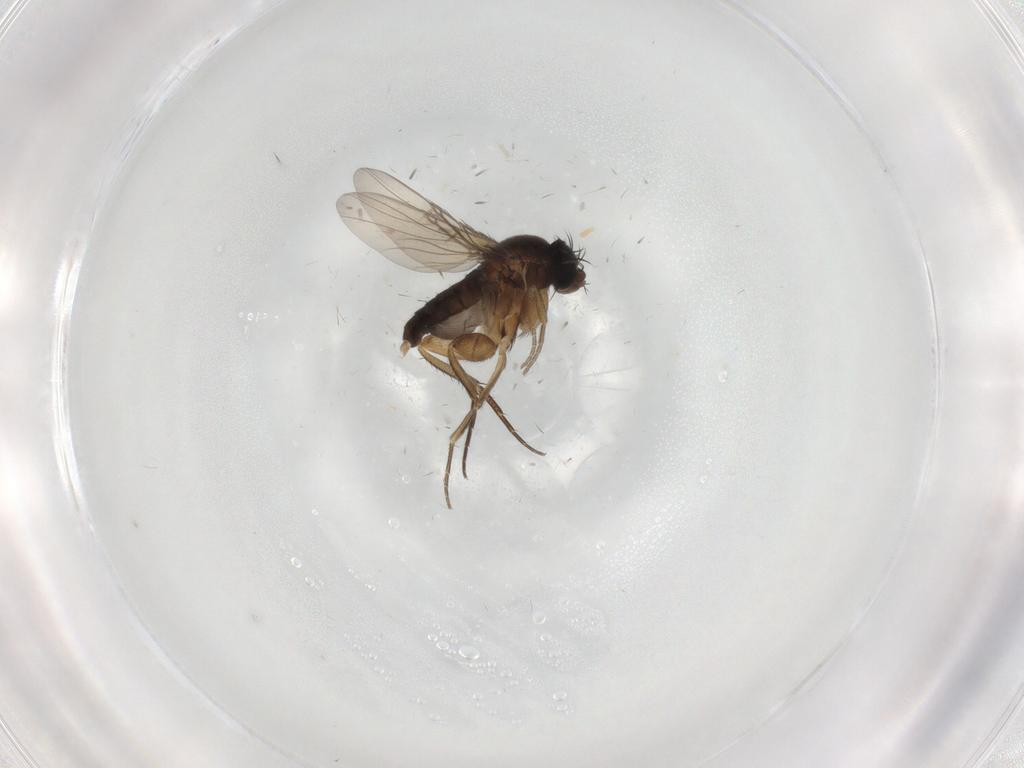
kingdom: Animalia
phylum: Arthropoda
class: Insecta
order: Diptera
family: Phoridae
